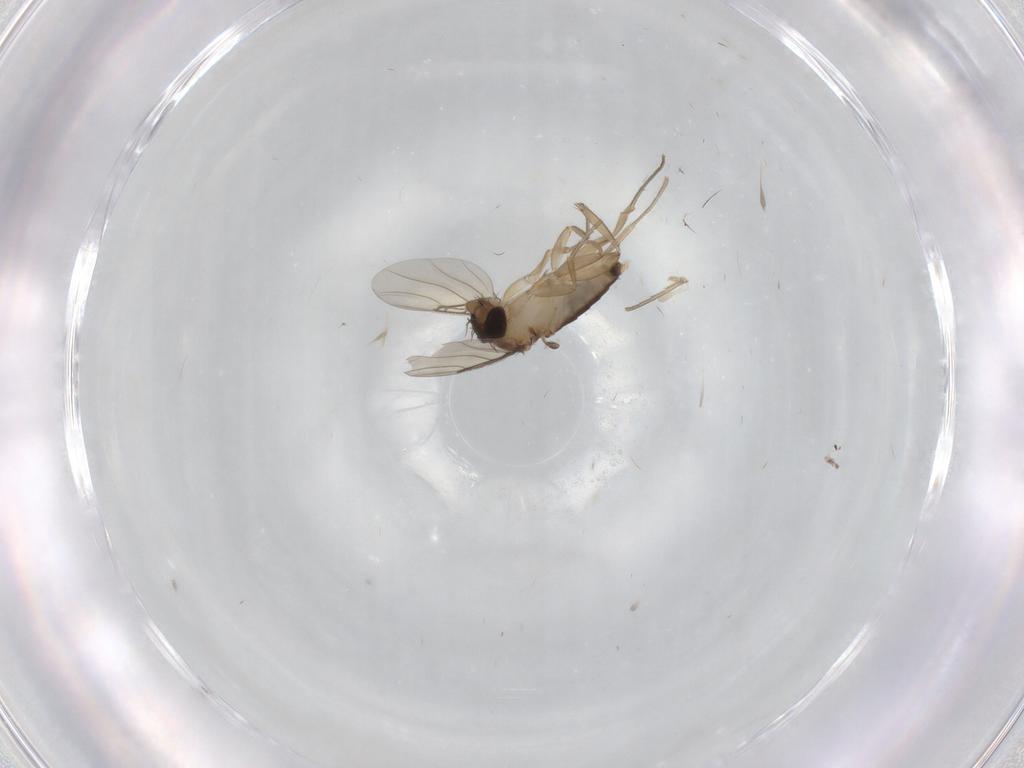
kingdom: Animalia
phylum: Arthropoda
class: Insecta
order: Diptera
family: Phoridae
